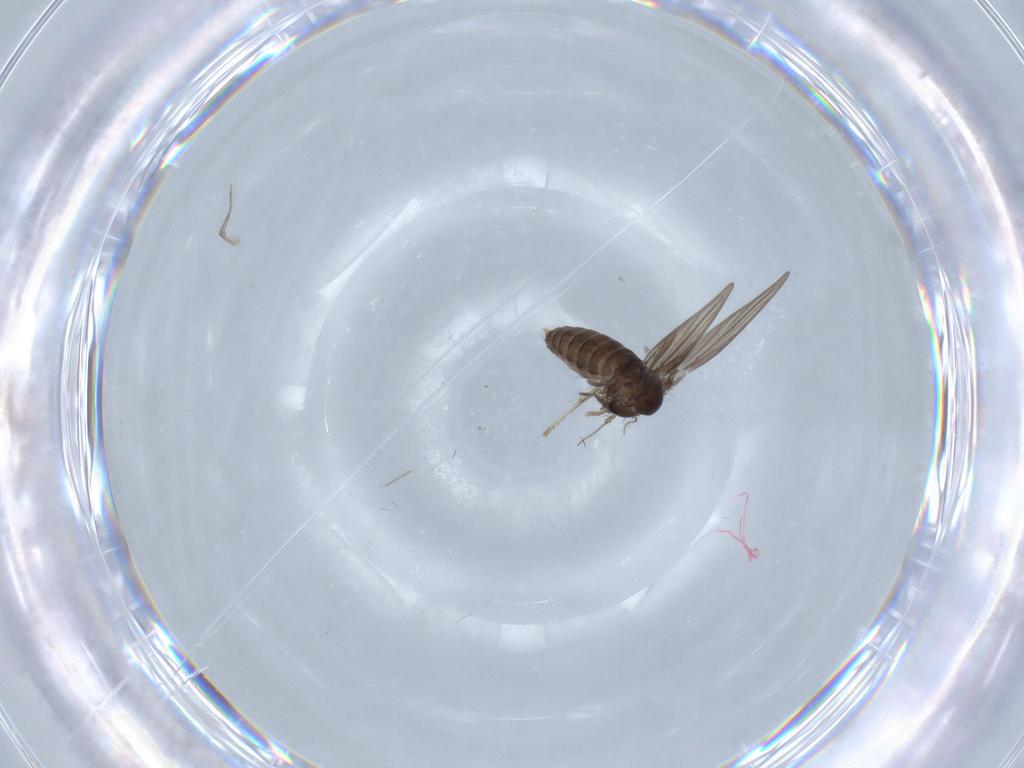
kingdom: Animalia
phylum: Arthropoda
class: Insecta
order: Diptera
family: Psychodidae
